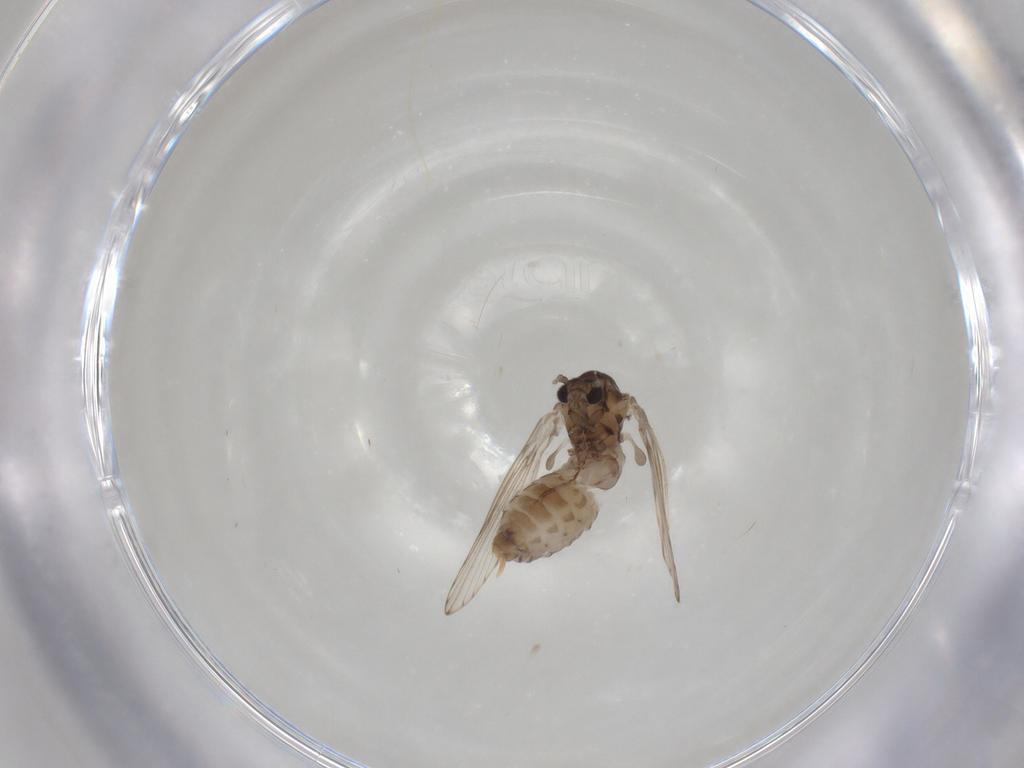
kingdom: Animalia
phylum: Arthropoda
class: Insecta
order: Diptera
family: Psychodidae
